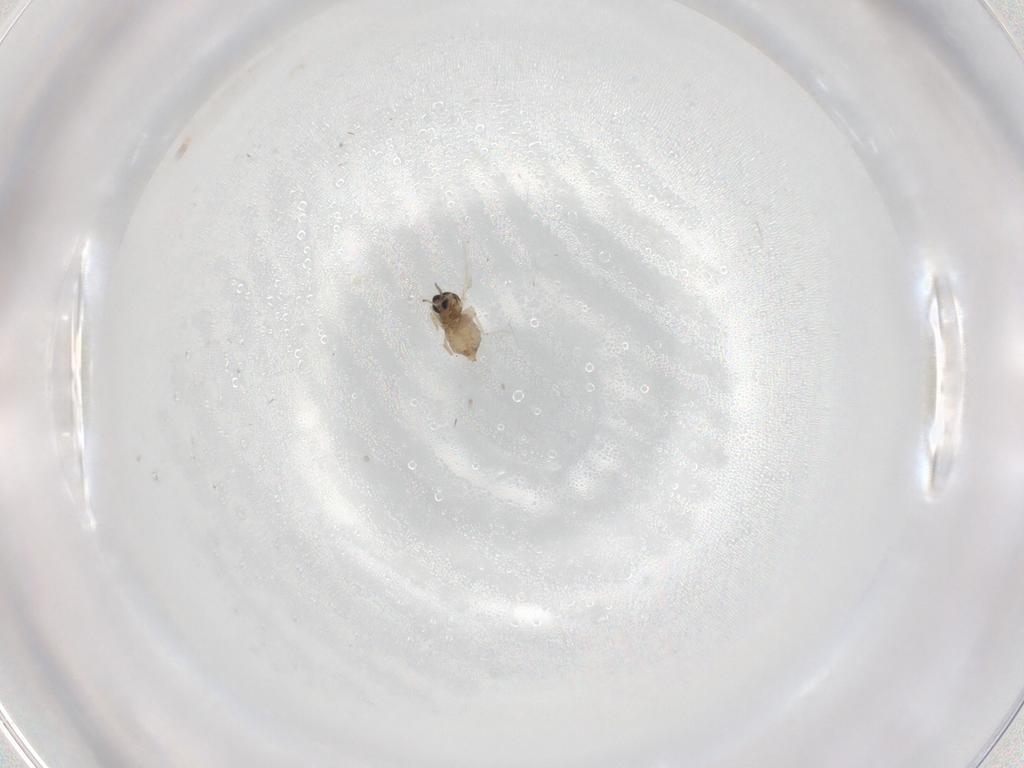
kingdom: Animalia
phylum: Arthropoda
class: Insecta
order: Diptera
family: Cecidomyiidae
